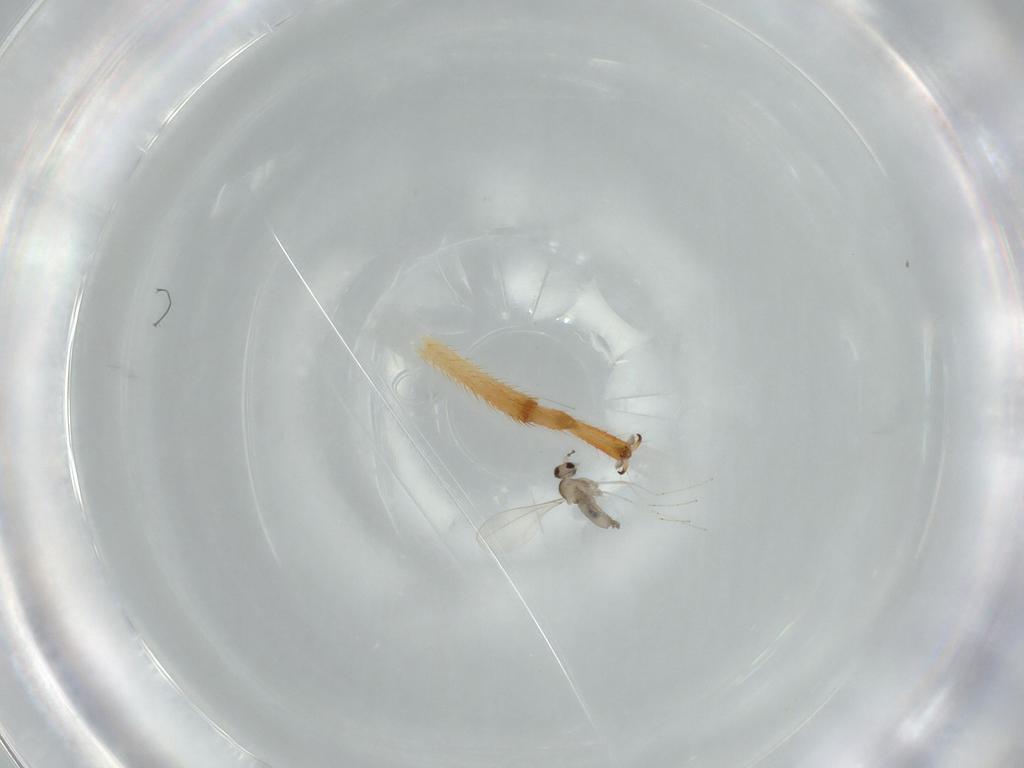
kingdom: Animalia
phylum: Arthropoda
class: Insecta
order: Diptera
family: Cecidomyiidae
